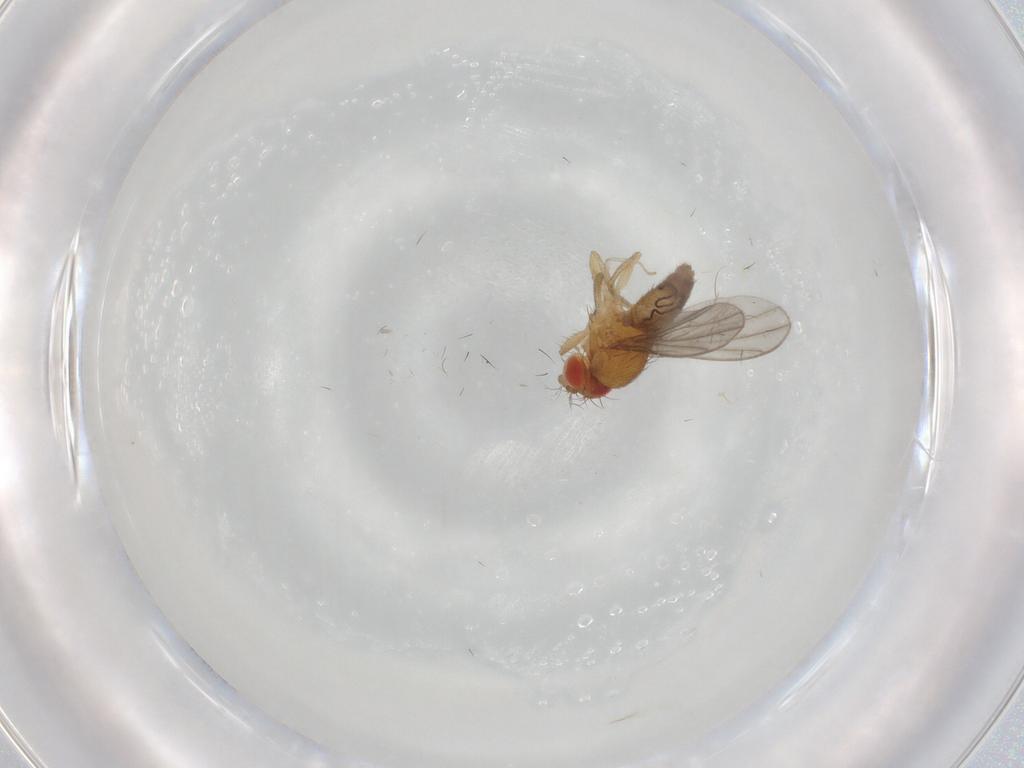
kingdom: Animalia
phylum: Arthropoda
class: Insecta
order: Diptera
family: Drosophilidae
